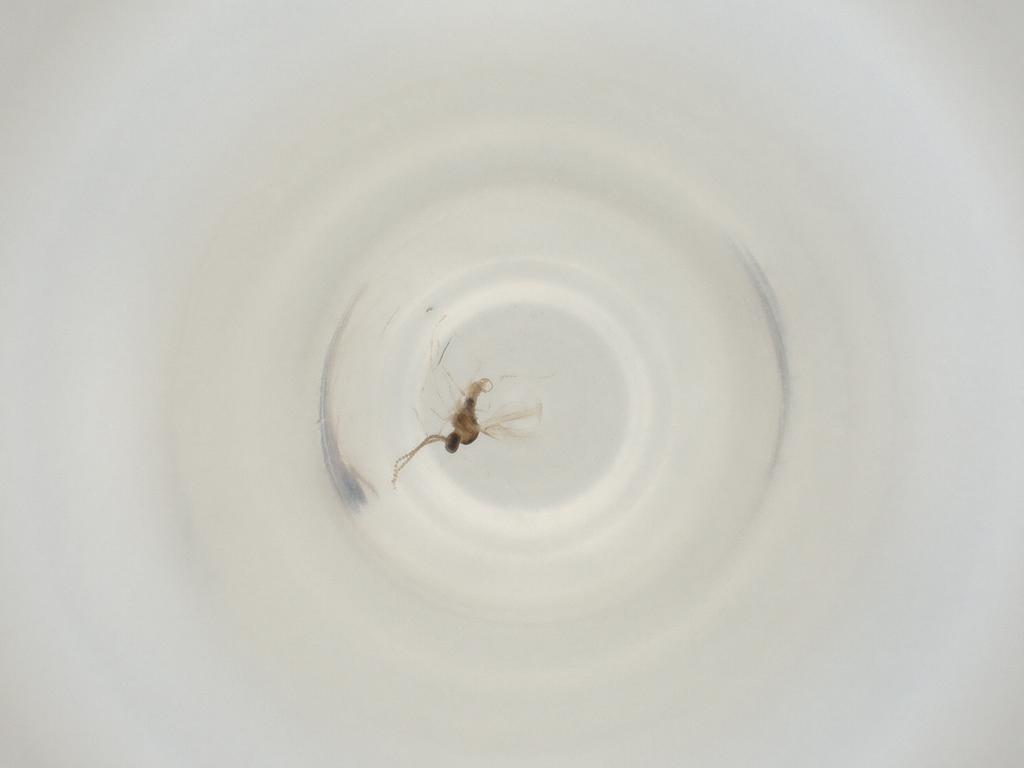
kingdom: Animalia
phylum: Arthropoda
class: Insecta
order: Diptera
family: Cecidomyiidae
